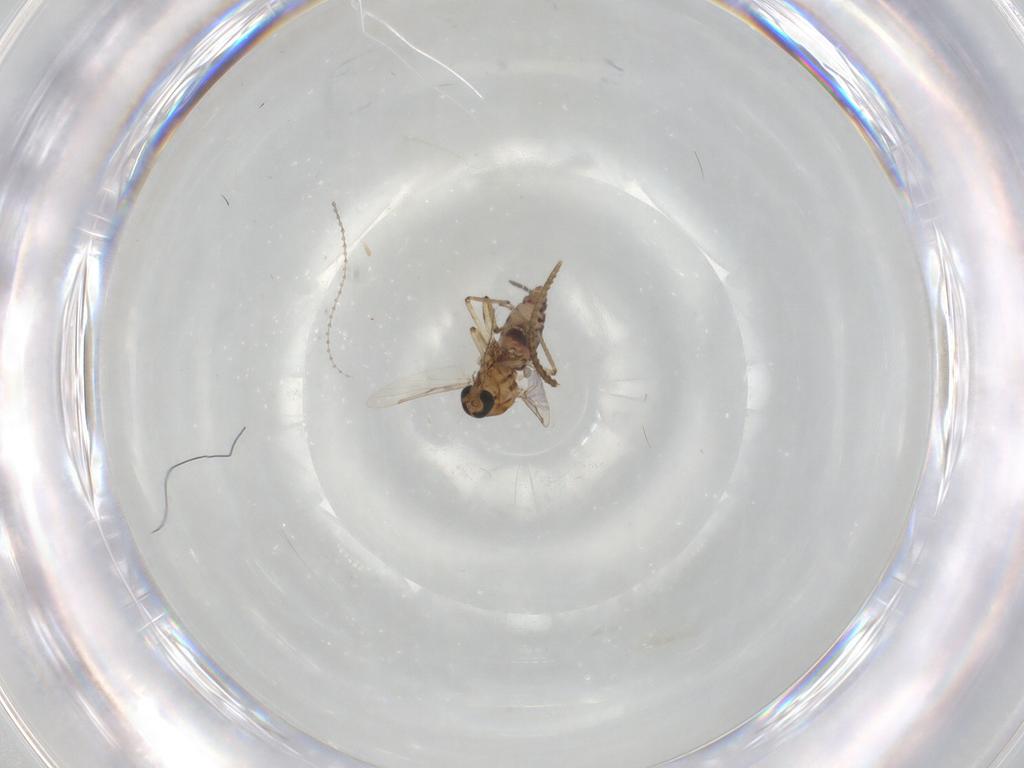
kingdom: Animalia
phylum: Arthropoda
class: Insecta
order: Diptera
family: Ceratopogonidae
